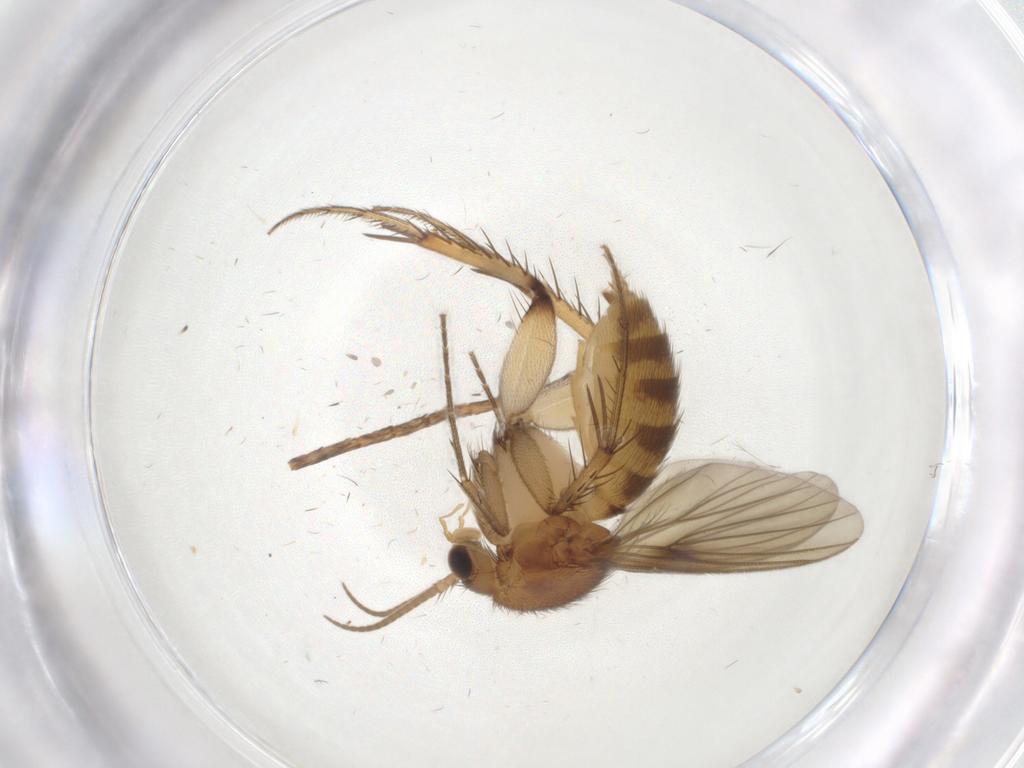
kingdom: Animalia
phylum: Arthropoda
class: Insecta
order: Diptera
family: Mycetophilidae
